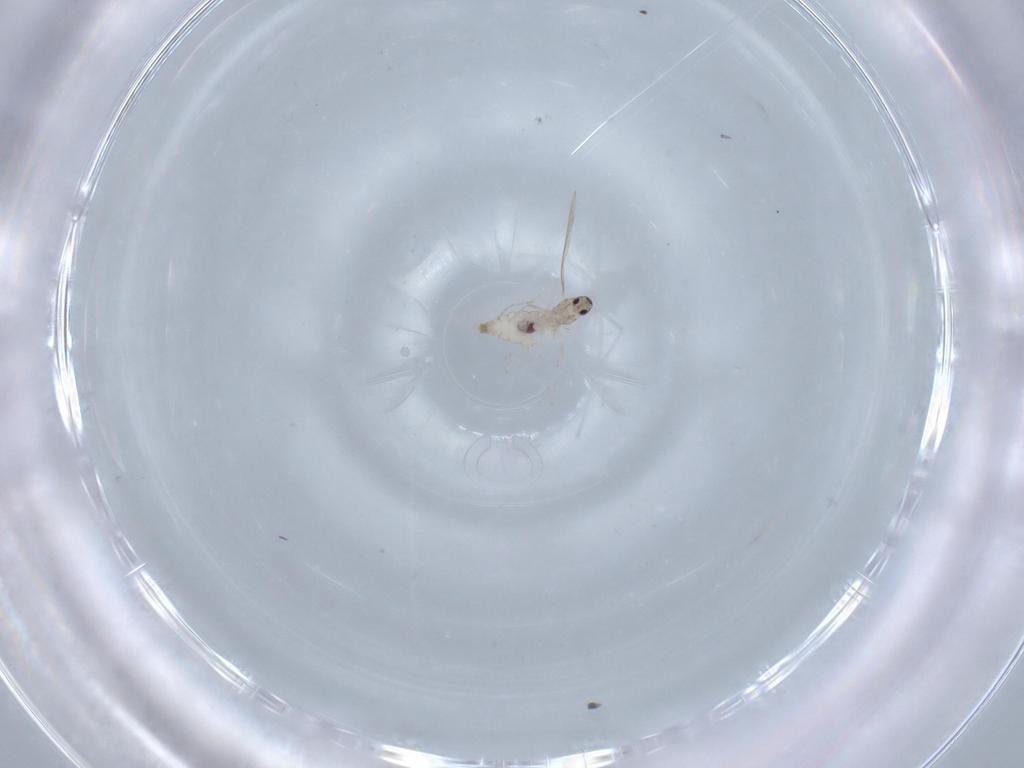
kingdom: Animalia
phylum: Arthropoda
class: Insecta
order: Diptera
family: Cecidomyiidae
